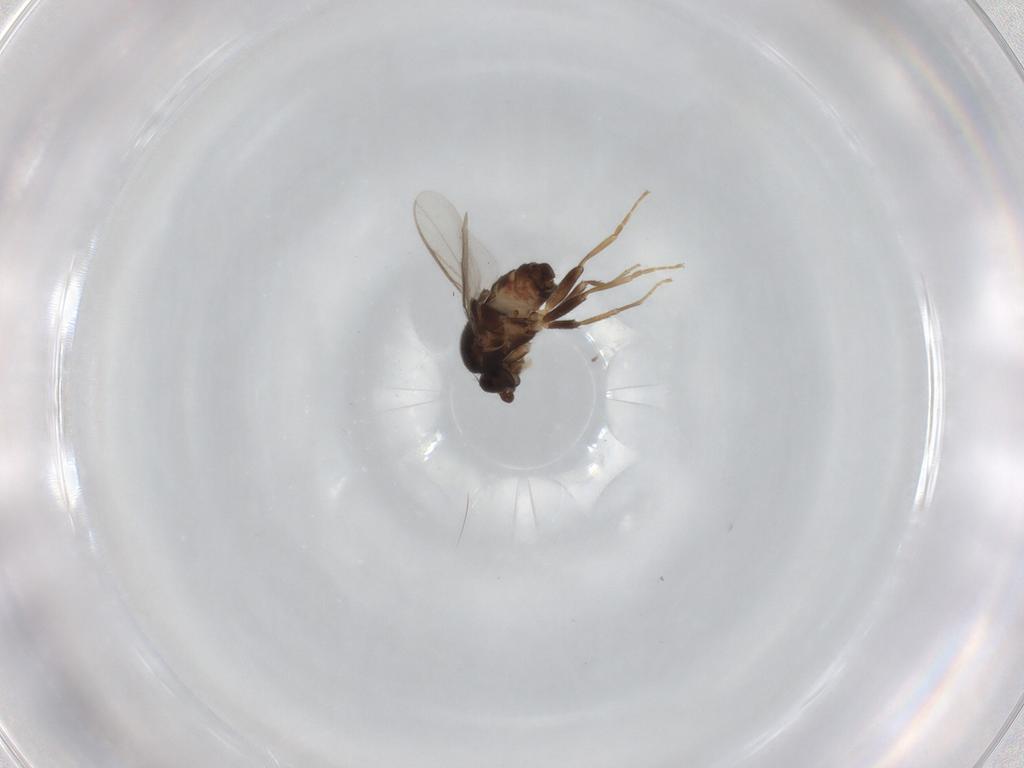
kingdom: Animalia
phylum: Arthropoda
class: Insecta
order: Diptera
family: Sphaeroceridae
